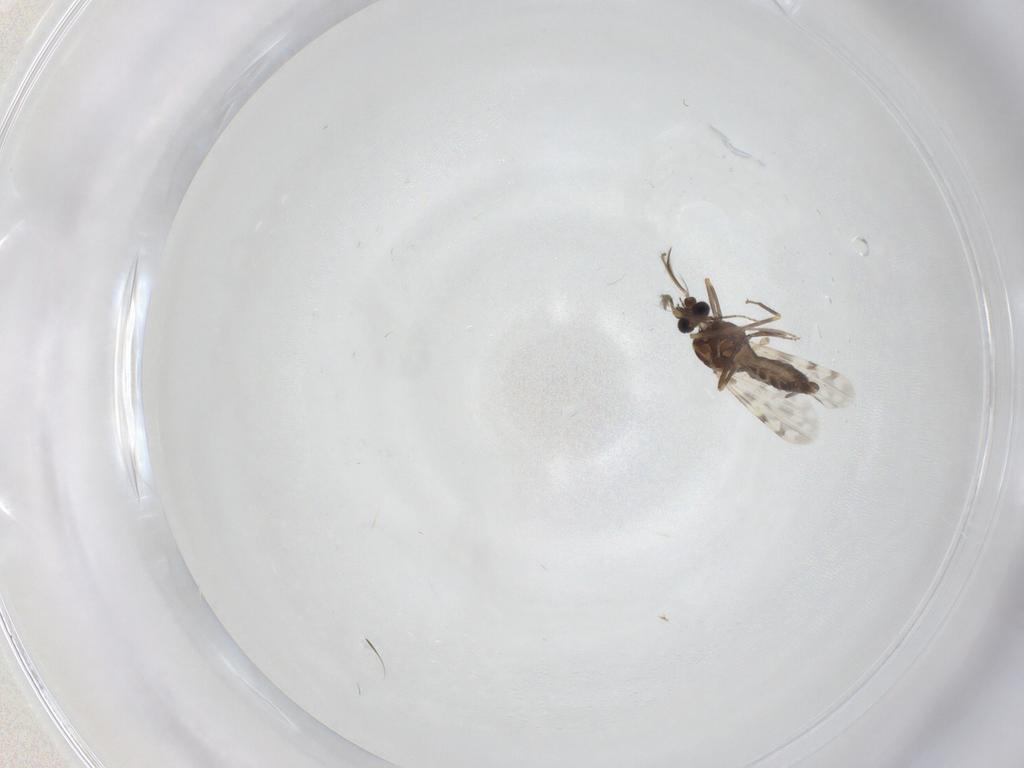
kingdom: Animalia
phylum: Arthropoda
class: Insecta
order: Diptera
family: Ceratopogonidae
